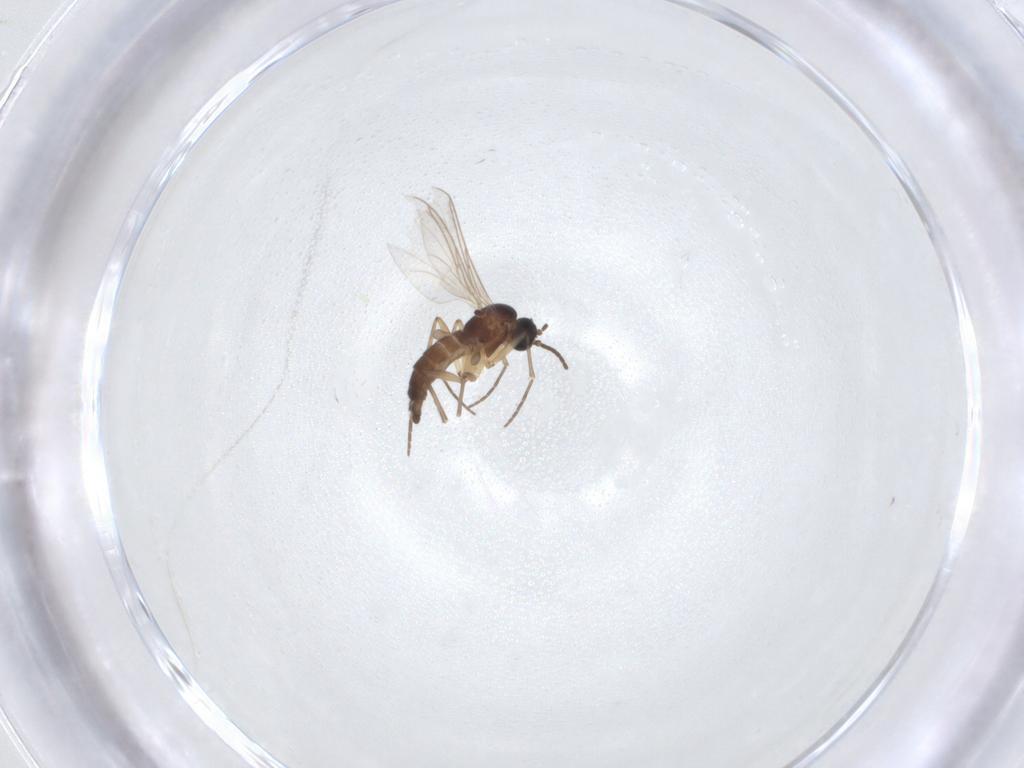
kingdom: Animalia
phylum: Arthropoda
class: Insecta
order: Diptera
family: Sciaridae
